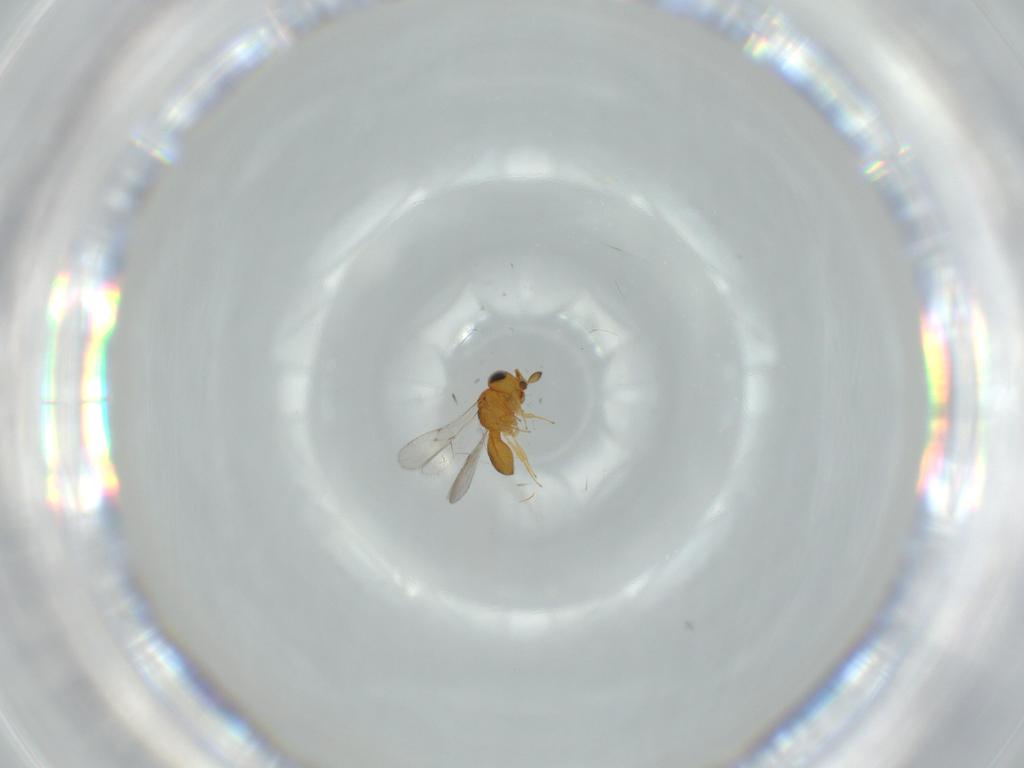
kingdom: Animalia
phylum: Arthropoda
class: Insecta
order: Hymenoptera
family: Scelionidae
